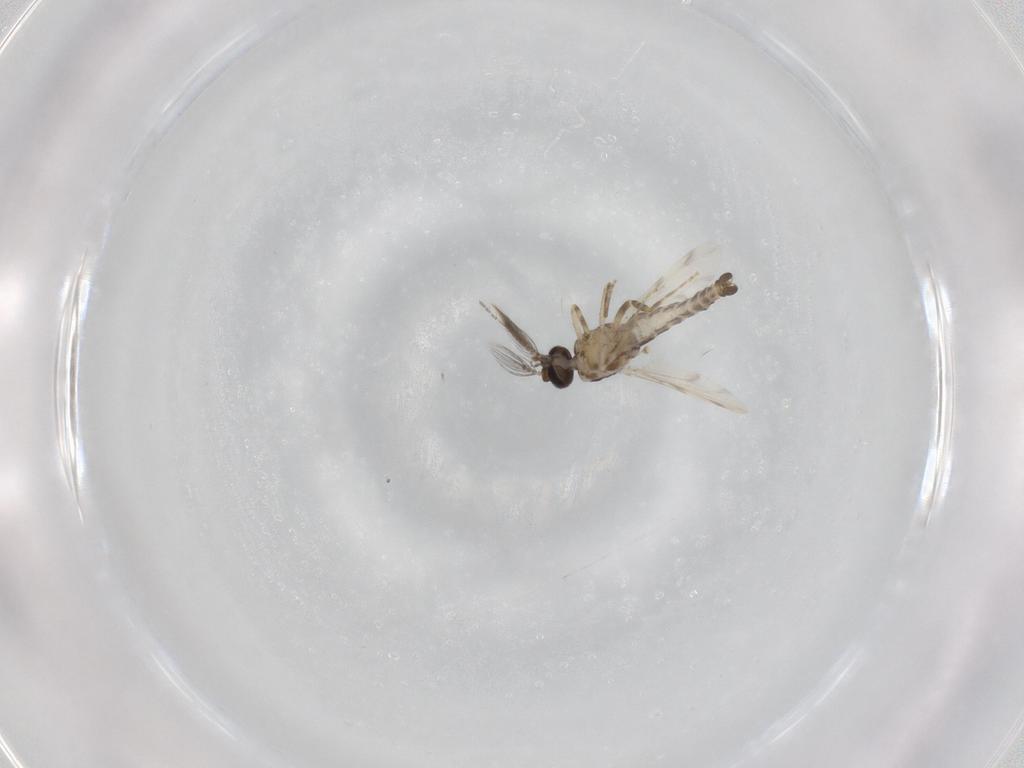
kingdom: Animalia
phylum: Arthropoda
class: Insecta
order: Diptera
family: Ceratopogonidae
